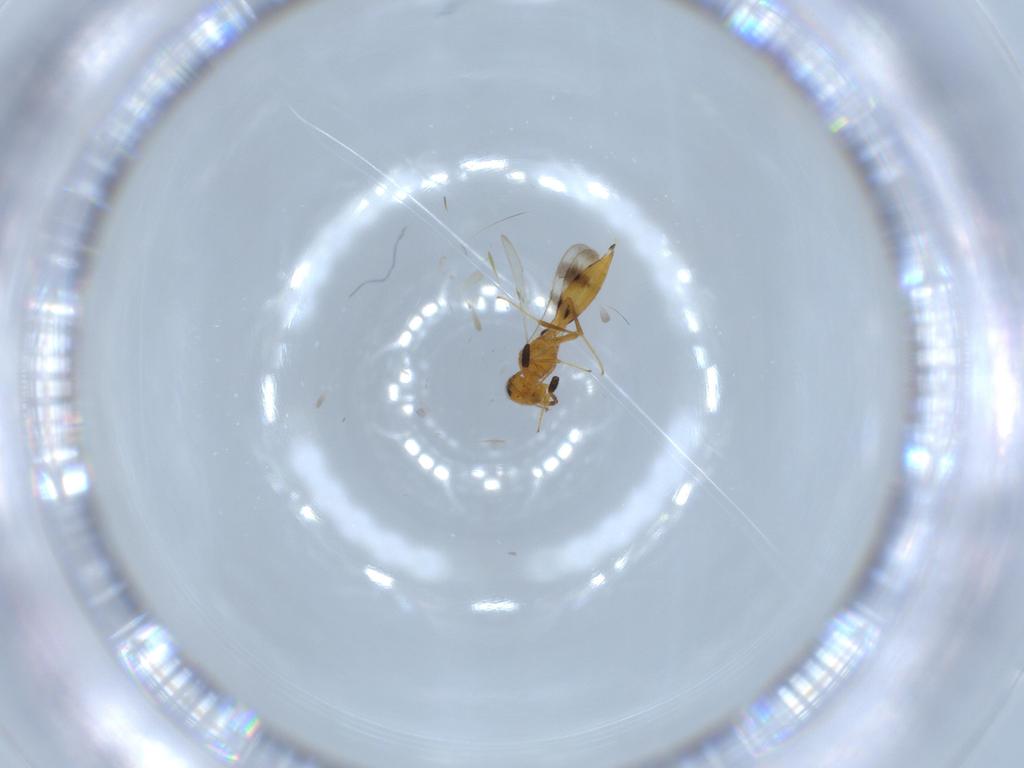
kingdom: Animalia
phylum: Arthropoda
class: Insecta
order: Hymenoptera
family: Scelionidae
